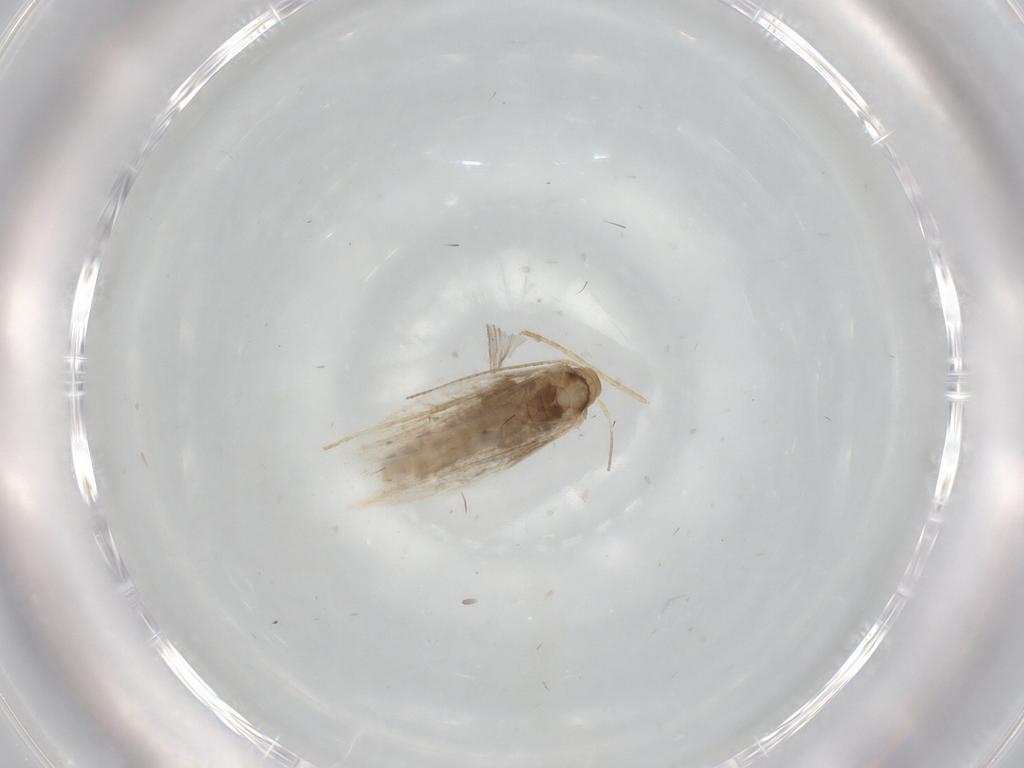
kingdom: Animalia
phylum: Arthropoda
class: Insecta
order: Lepidoptera
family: Gracillariidae
